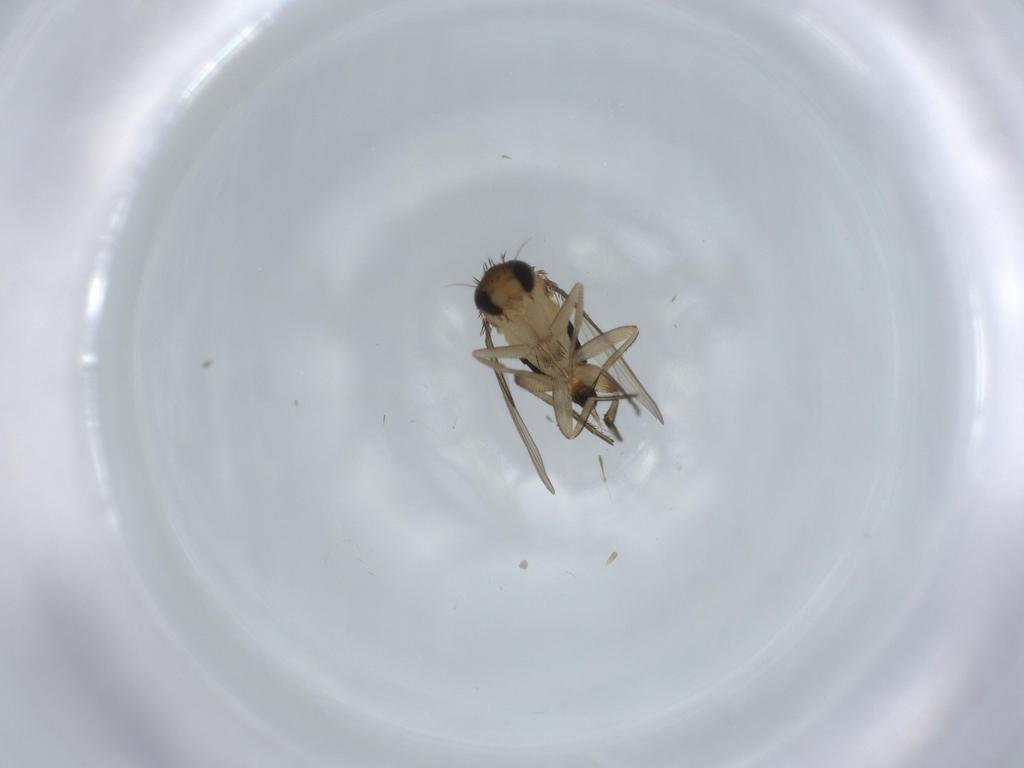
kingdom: Animalia
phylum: Arthropoda
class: Insecta
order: Diptera
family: Phoridae
